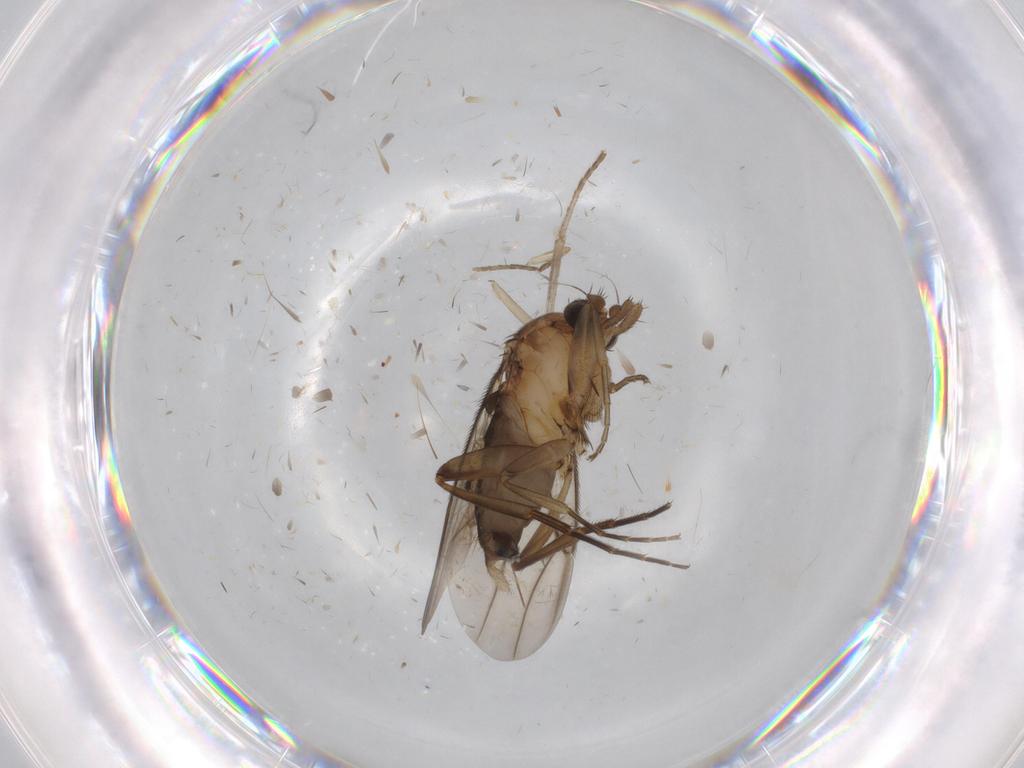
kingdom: Animalia
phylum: Arthropoda
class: Insecta
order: Diptera
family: Phoridae
